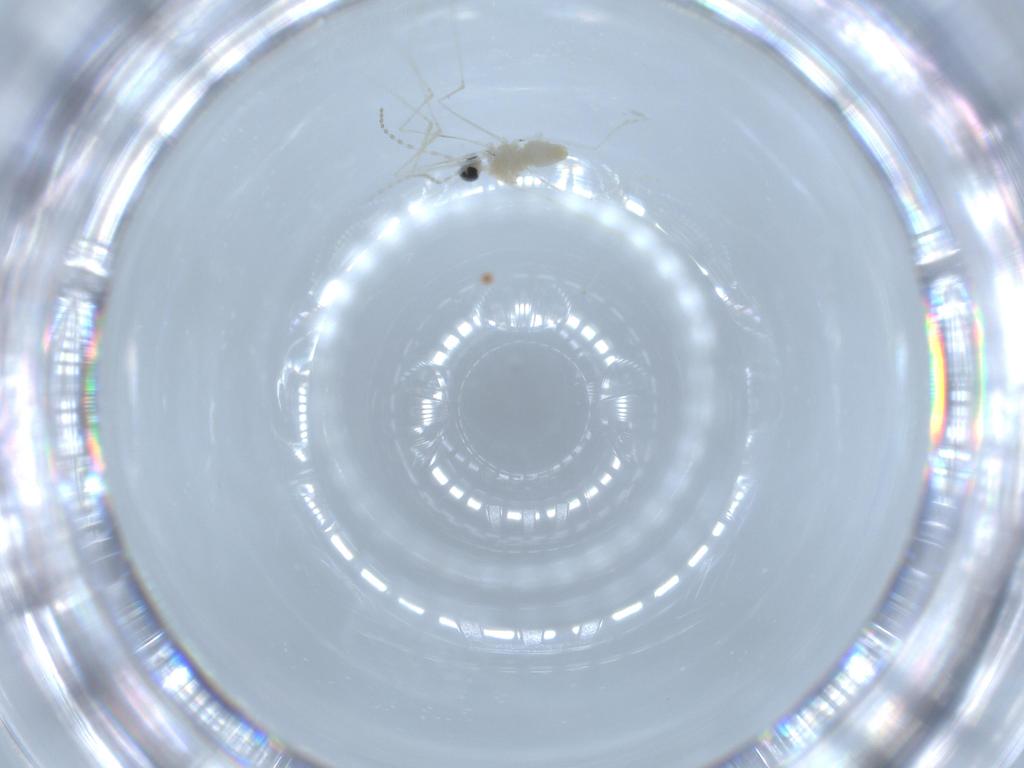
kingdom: Animalia
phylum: Arthropoda
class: Insecta
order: Diptera
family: Cecidomyiidae
